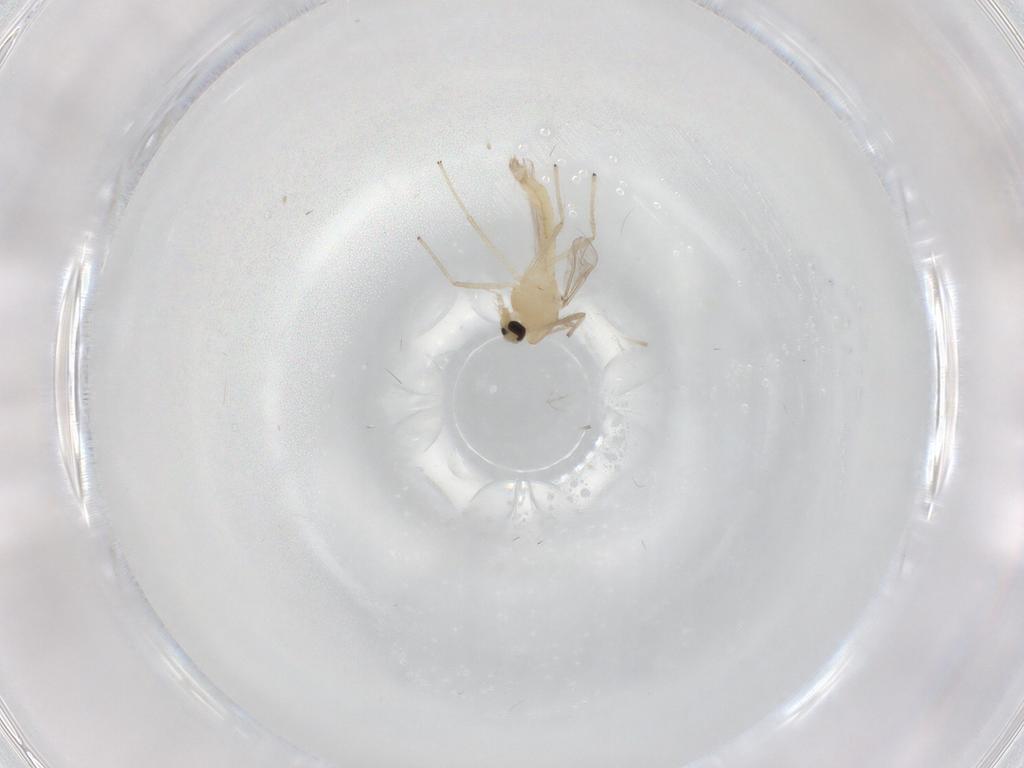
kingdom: Animalia
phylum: Arthropoda
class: Insecta
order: Diptera
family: Chironomidae
